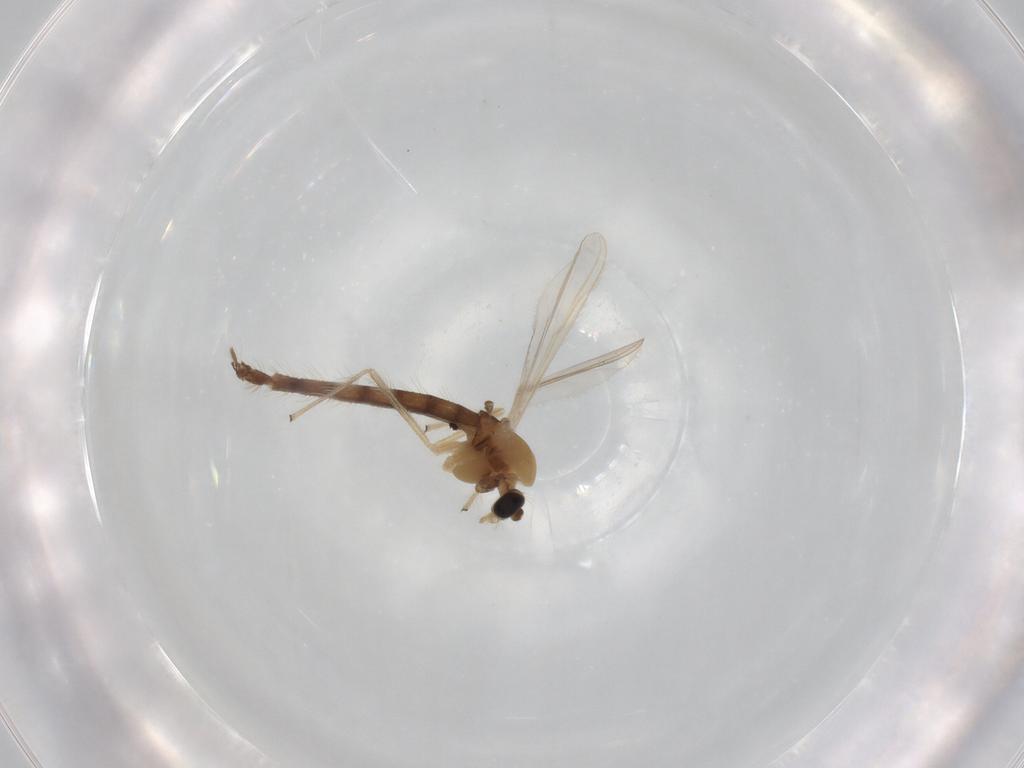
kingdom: Animalia
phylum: Arthropoda
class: Insecta
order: Diptera
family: Chironomidae
